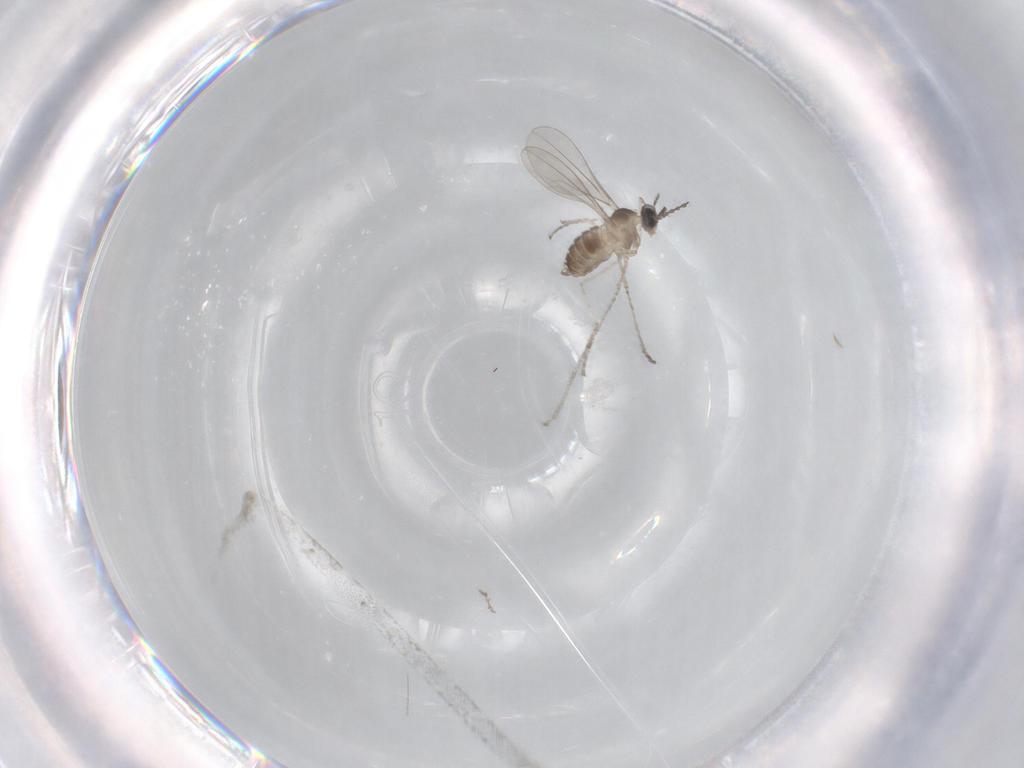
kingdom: Animalia
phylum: Arthropoda
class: Insecta
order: Diptera
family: Cecidomyiidae
